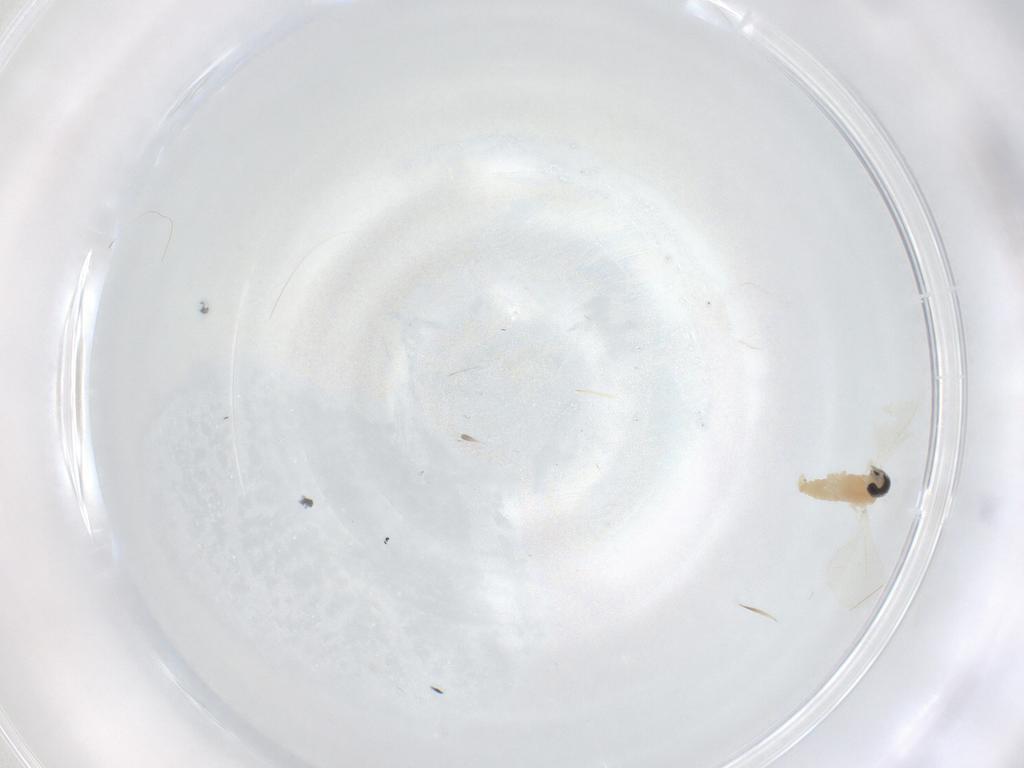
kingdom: Animalia
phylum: Arthropoda
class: Insecta
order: Diptera
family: Cecidomyiidae
